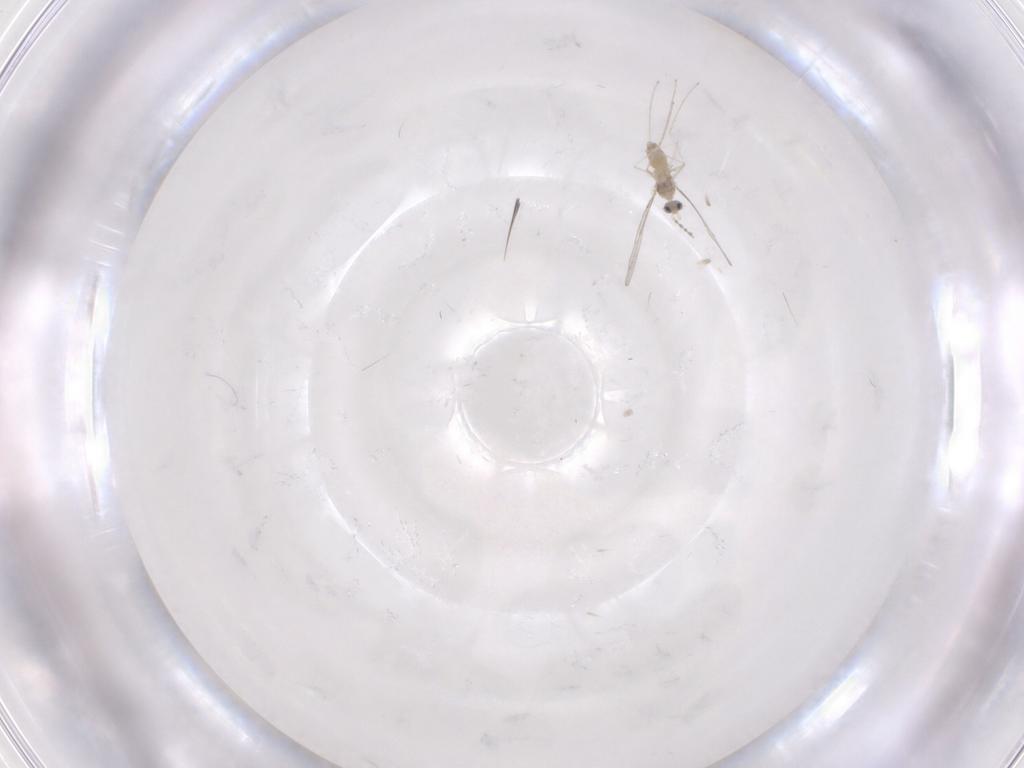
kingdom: Animalia
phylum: Arthropoda
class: Insecta
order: Diptera
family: Cecidomyiidae
